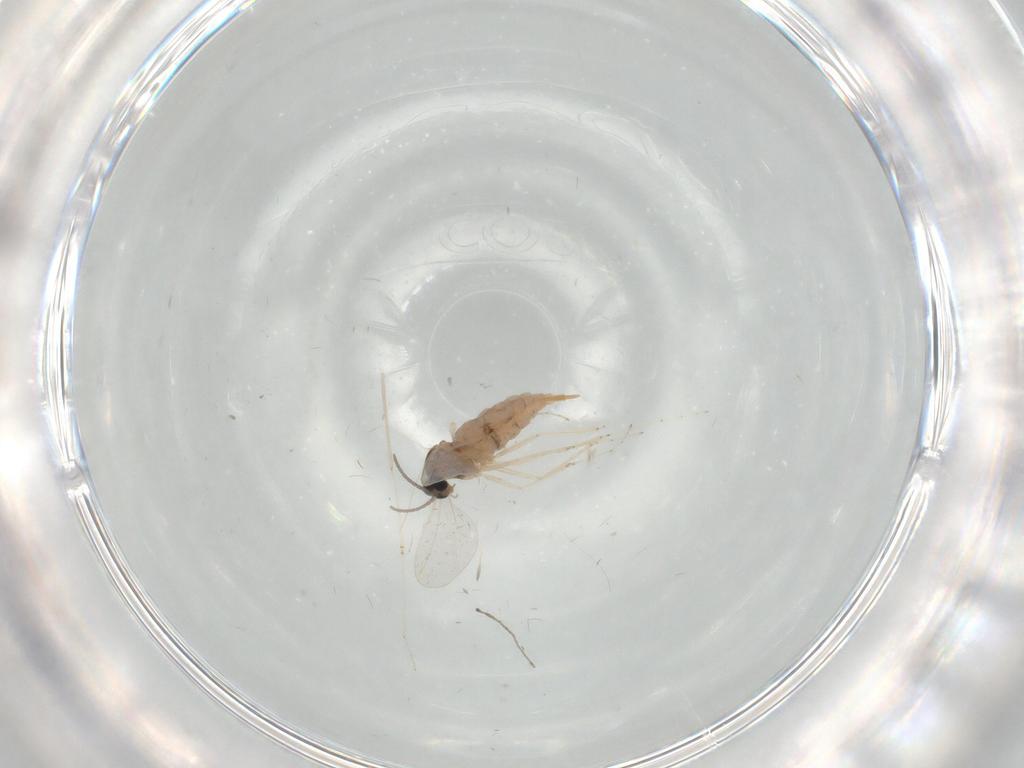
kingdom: Animalia
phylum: Arthropoda
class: Insecta
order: Diptera
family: Cecidomyiidae
